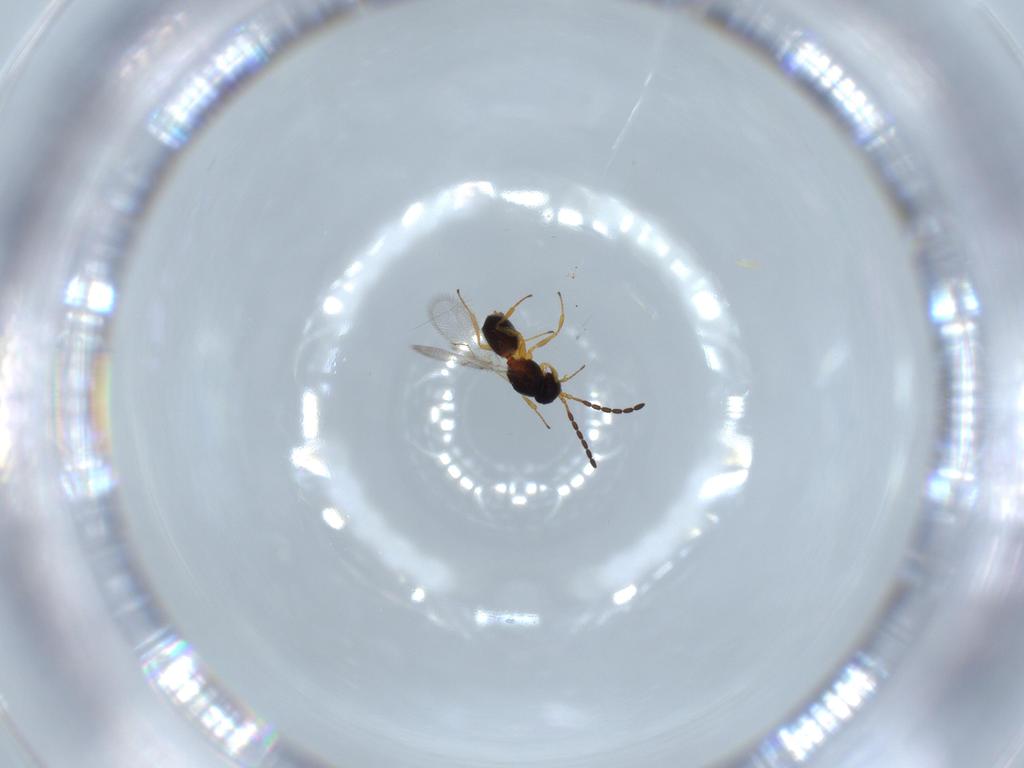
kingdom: Animalia
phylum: Arthropoda
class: Insecta
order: Hymenoptera
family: Figitidae
